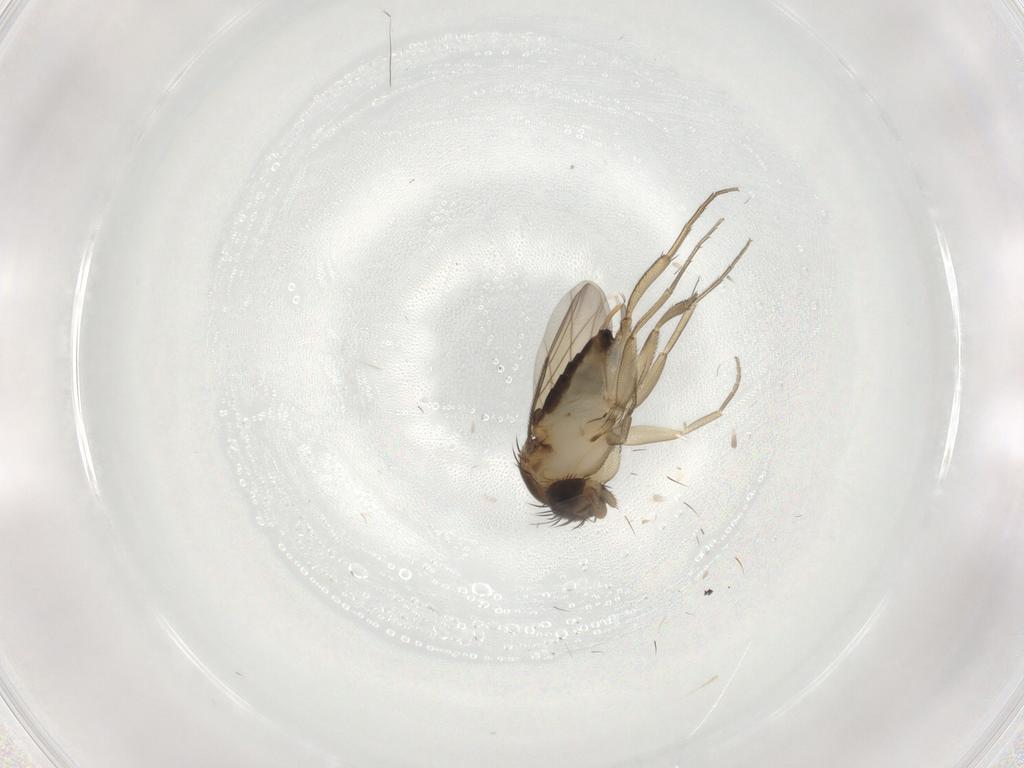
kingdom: Animalia
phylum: Arthropoda
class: Insecta
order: Diptera
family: Phoridae
